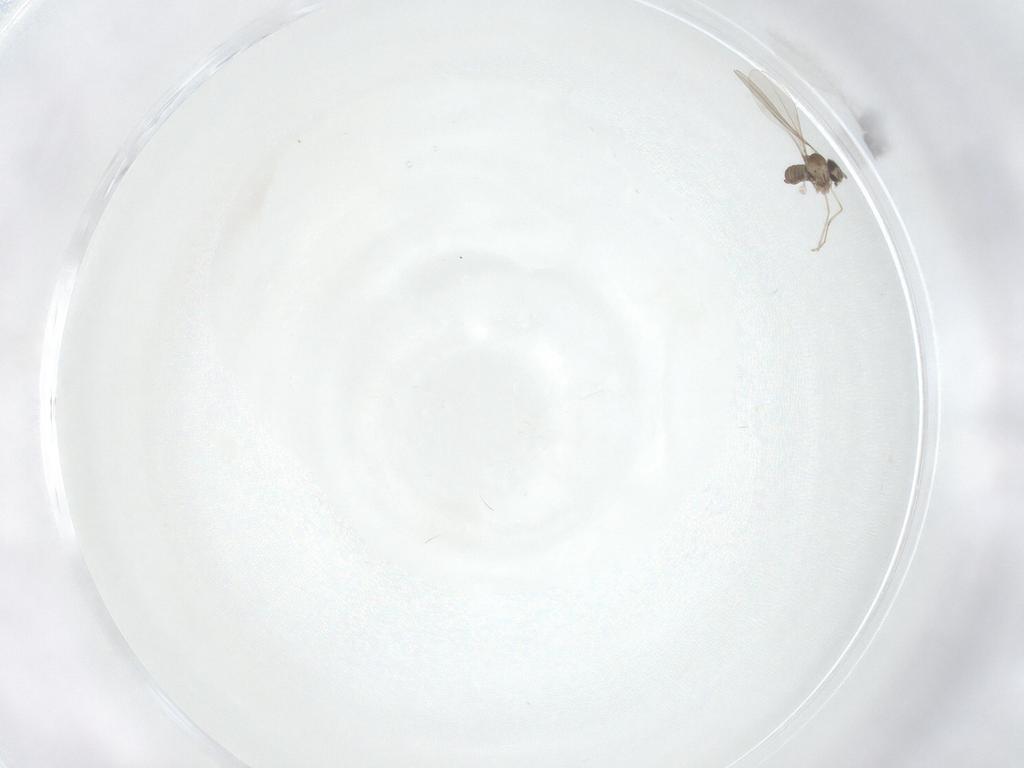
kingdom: Animalia
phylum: Arthropoda
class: Insecta
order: Diptera
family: Cecidomyiidae
